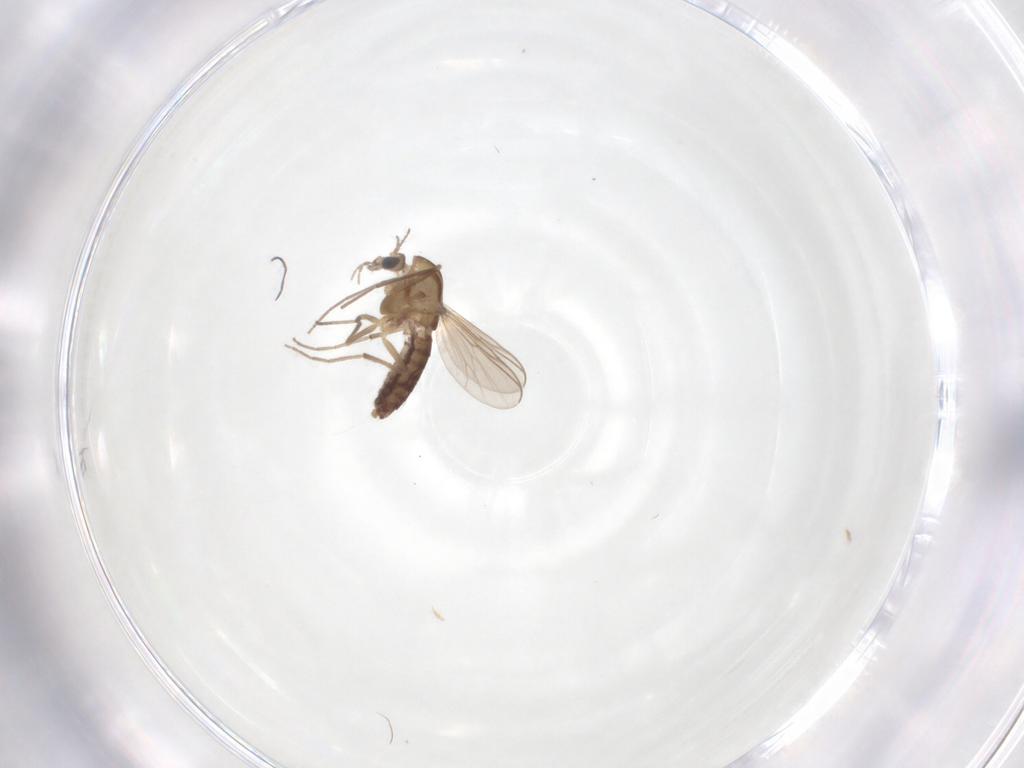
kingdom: Animalia
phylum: Arthropoda
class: Insecta
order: Diptera
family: Chironomidae
